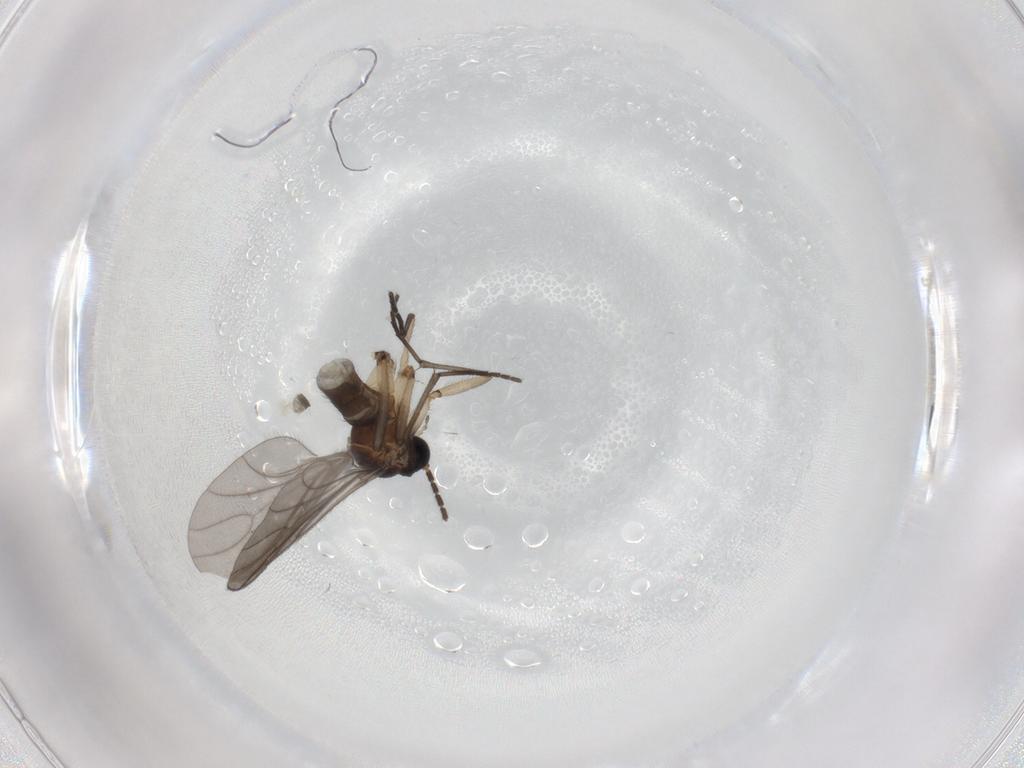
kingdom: Animalia
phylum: Arthropoda
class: Insecta
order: Diptera
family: Sciaridae
